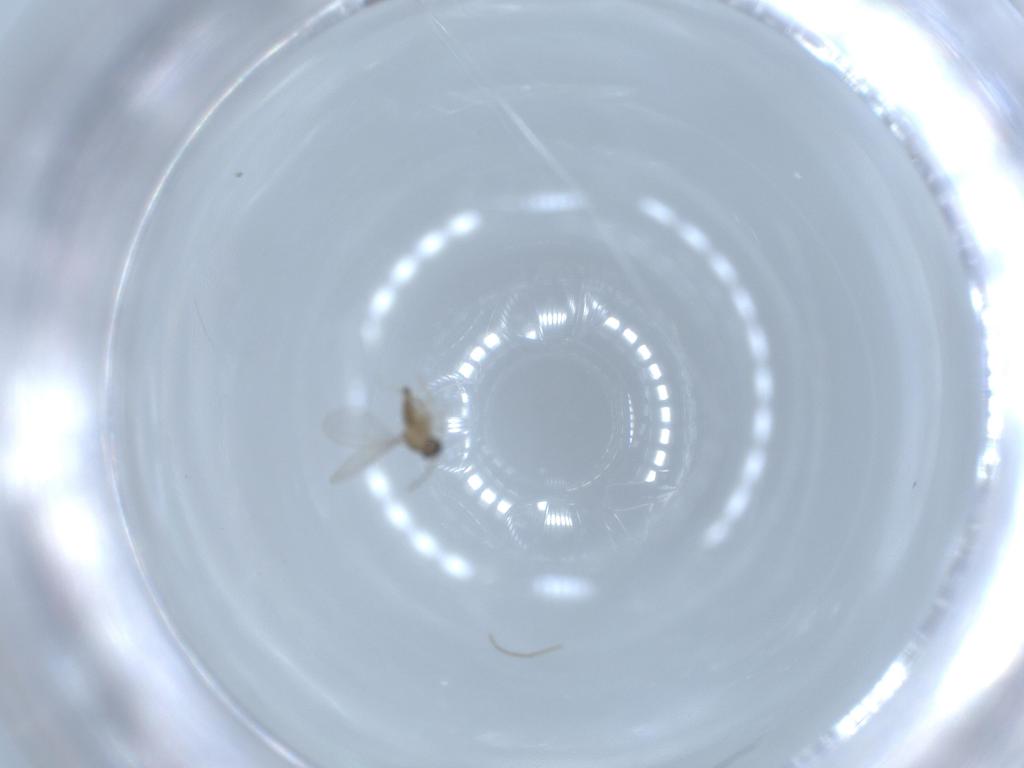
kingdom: Animalia
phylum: Arthropoda
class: Insecta
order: Diptera
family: Cecidomyiidae
